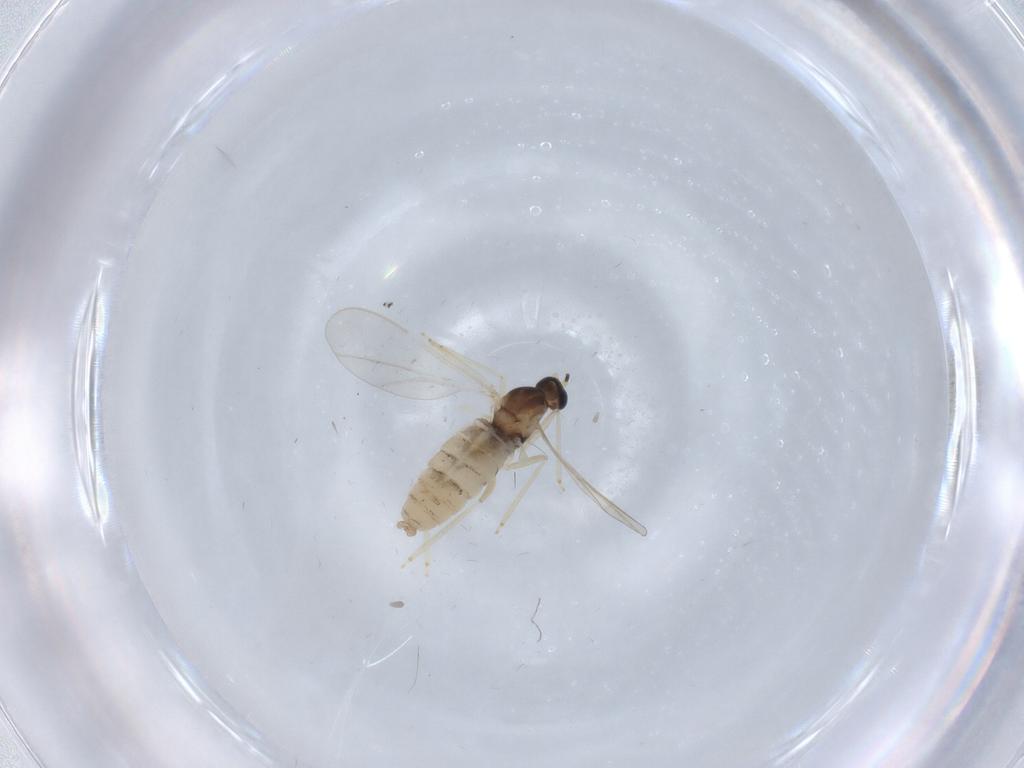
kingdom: Animalia
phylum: Arthropoda
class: Insecta
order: Diptera
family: Cecidomyiidae
